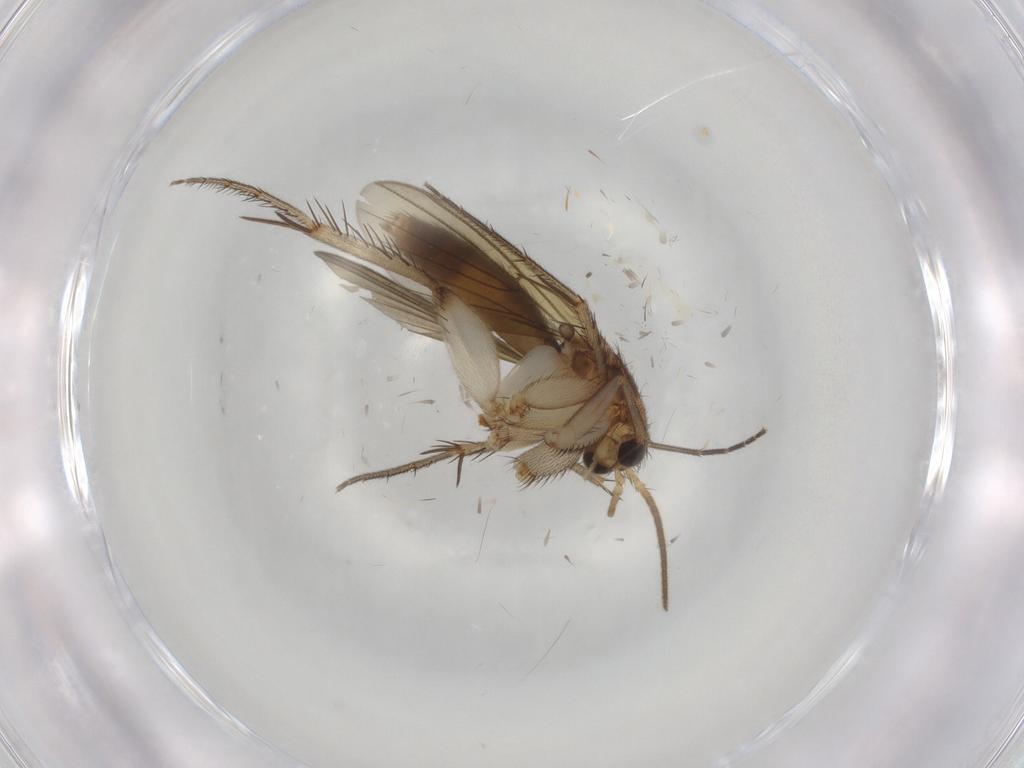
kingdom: Animalia
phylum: Arthropoda
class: Insecta
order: Diptera
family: Mycetophilidae
